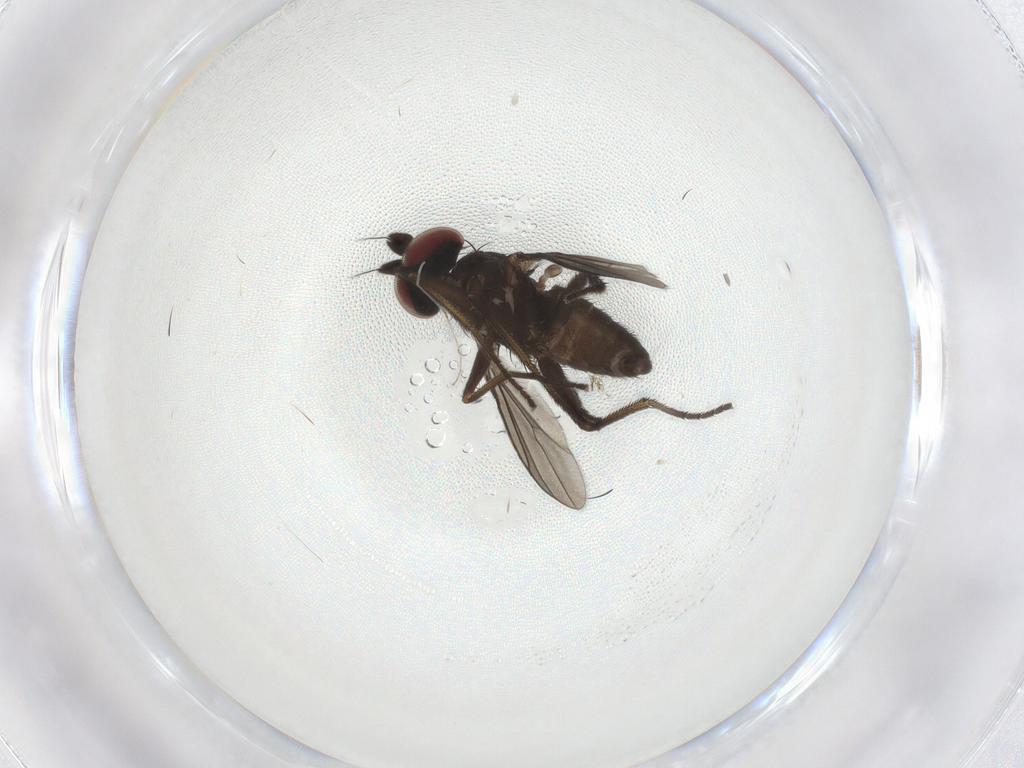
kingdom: Animalia
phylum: Arthropoda
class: Insecta
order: Diptera
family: Dolichopodidae
